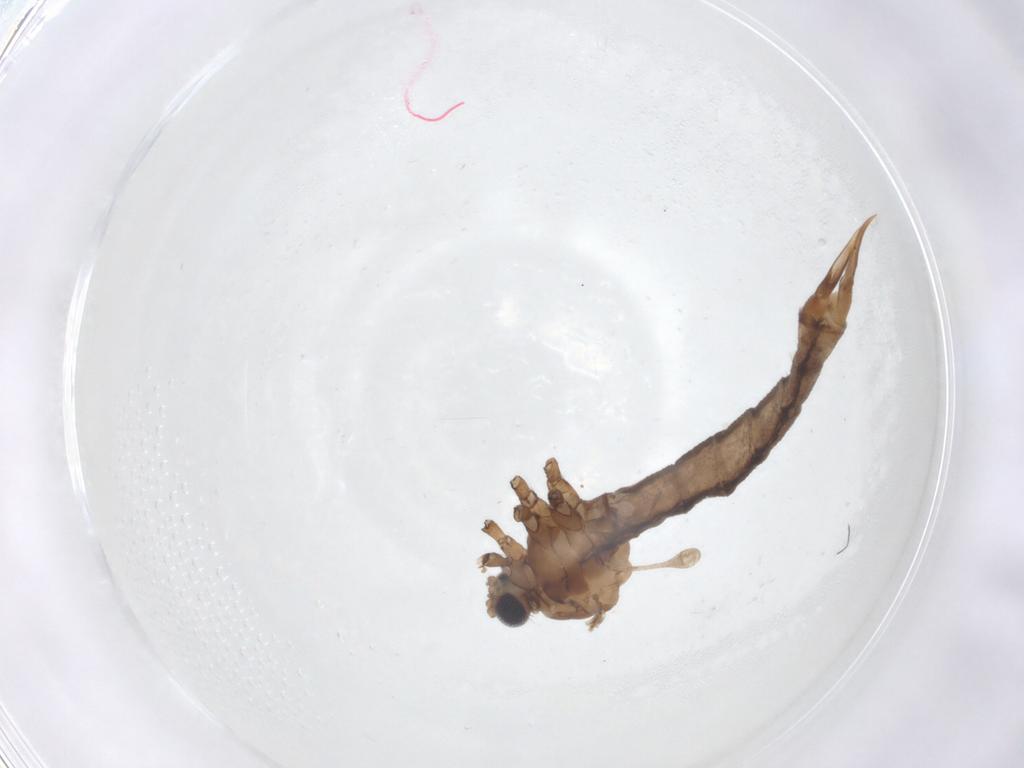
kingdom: Animalia
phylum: Arthropoda
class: Insecta
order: Diptera
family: Limoniidae
